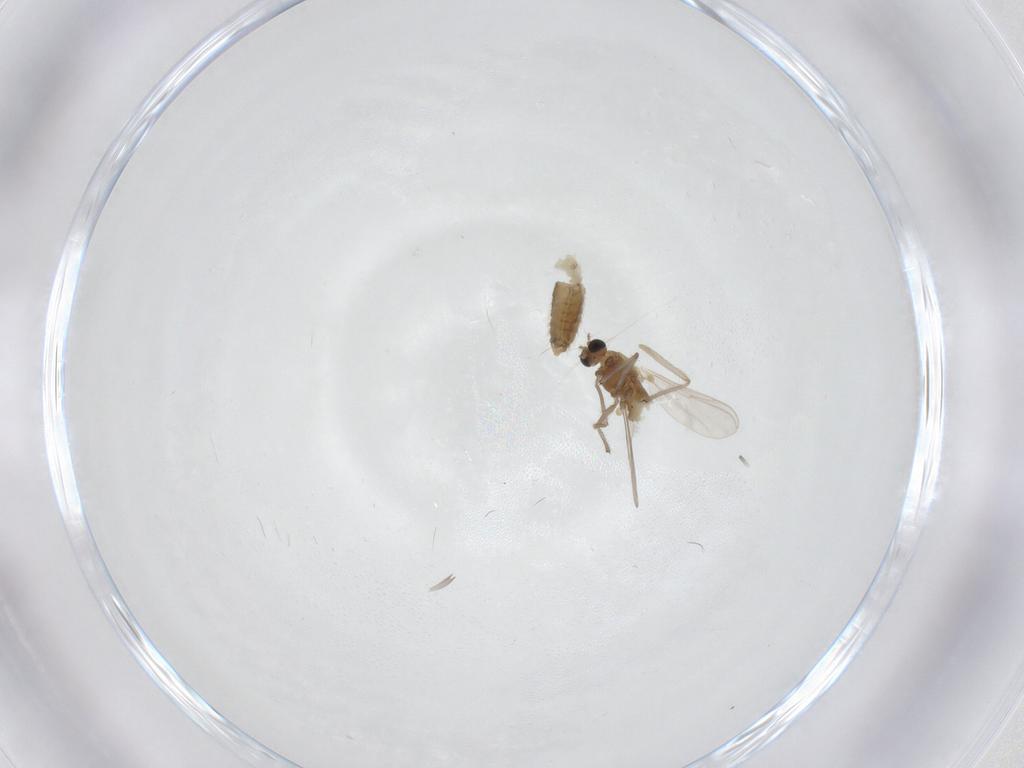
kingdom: Animalia
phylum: Arthropoda
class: Insecta
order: Diptera
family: Chironomidae
